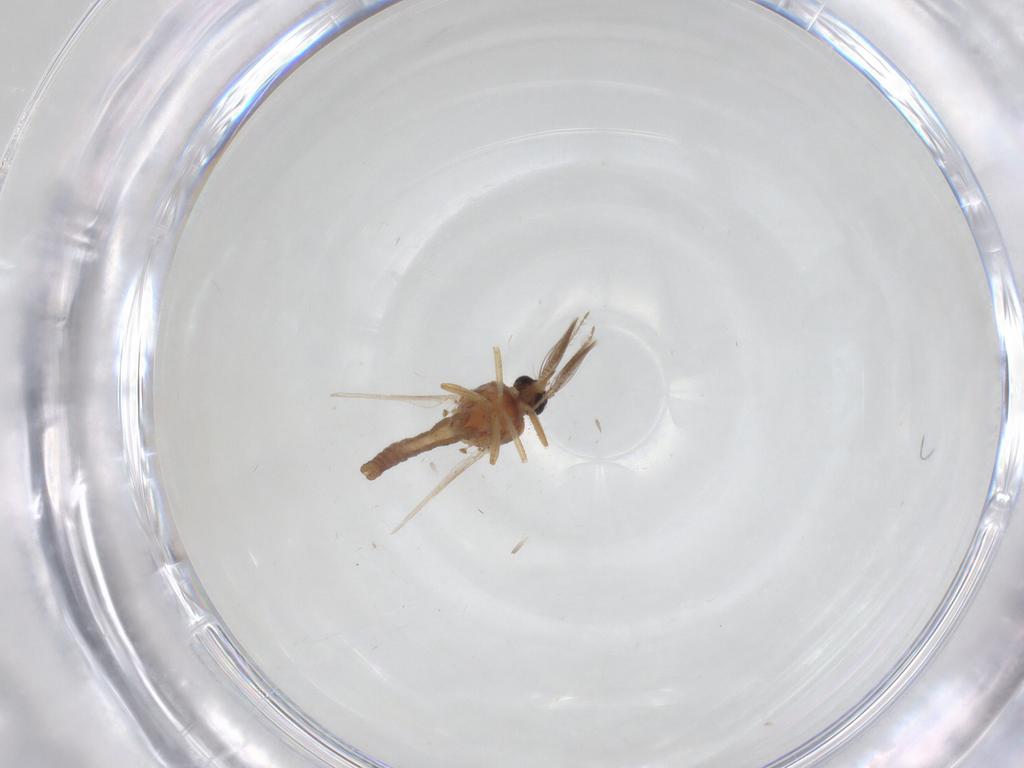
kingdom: Animalia
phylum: Arthropoda
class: Insecta
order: Diptera
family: Ceratopogonidae
